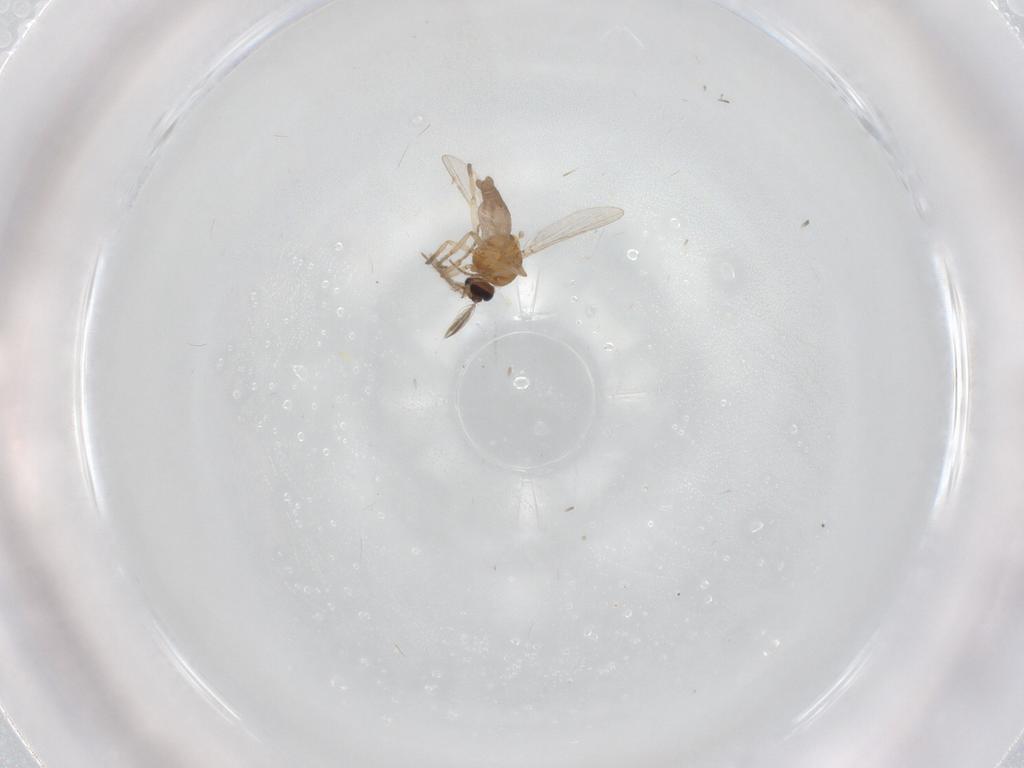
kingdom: Animalia
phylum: Arthropoda
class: Insecta
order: Diptera
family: Ceratopogonidae
